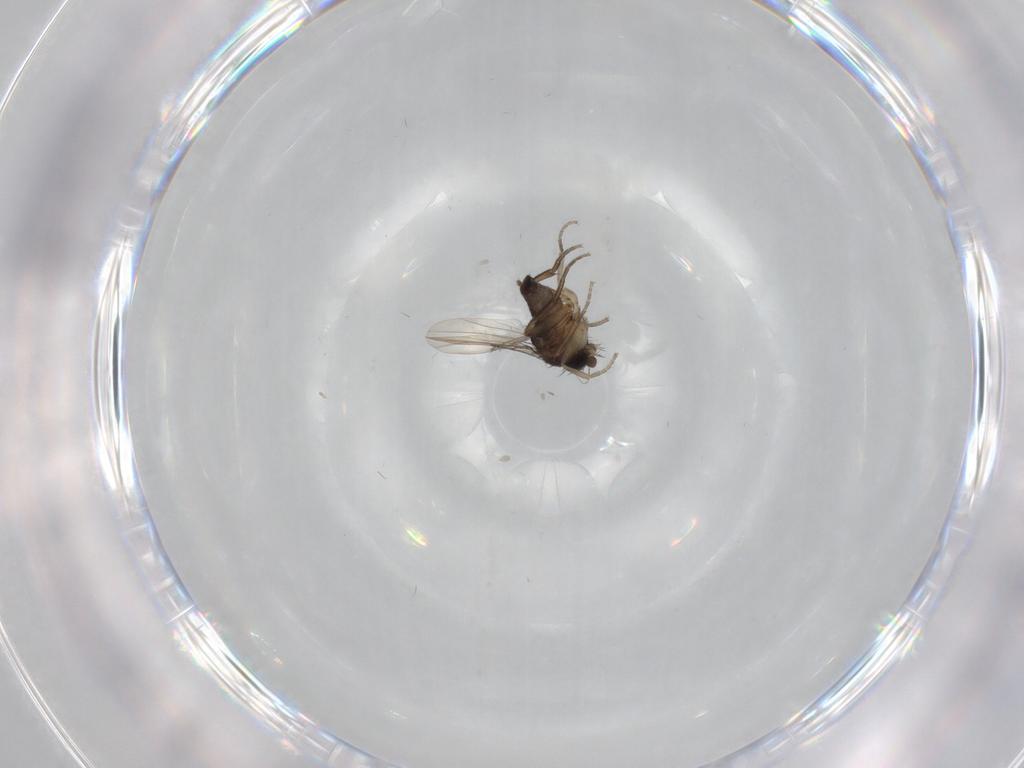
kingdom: Animalia
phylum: Arthropoda
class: Insecta
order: Diptera
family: Phoridae
